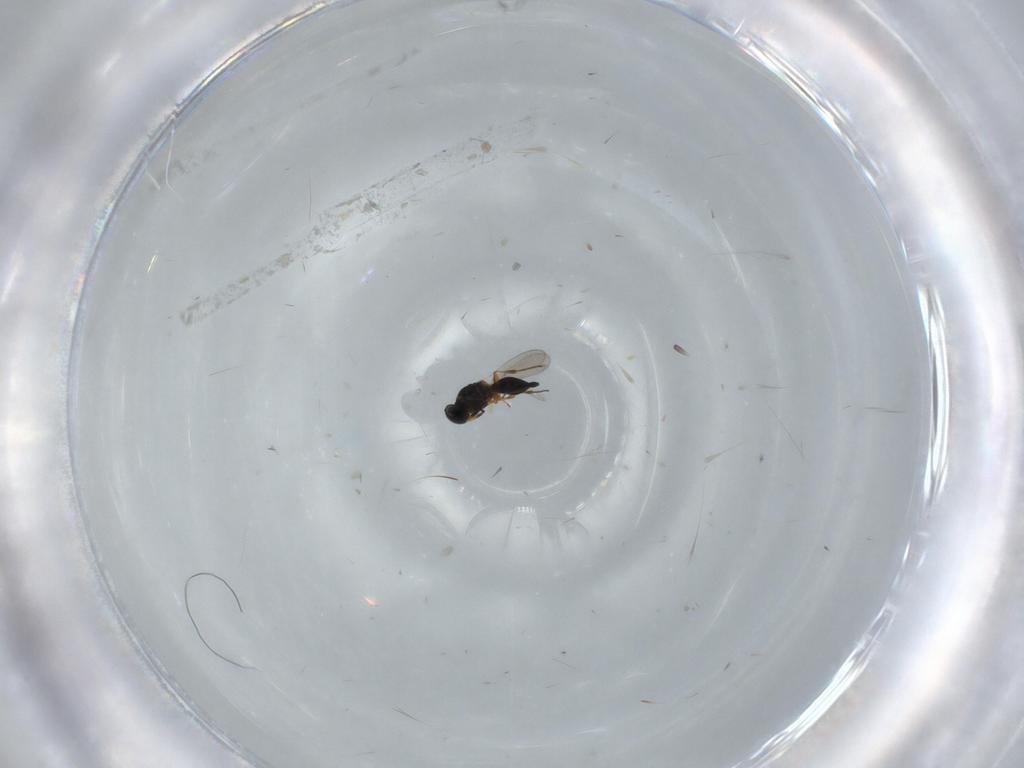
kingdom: Animalia
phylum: Arthropoda
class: Insecta
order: Hymenoptera
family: Platygastridae
